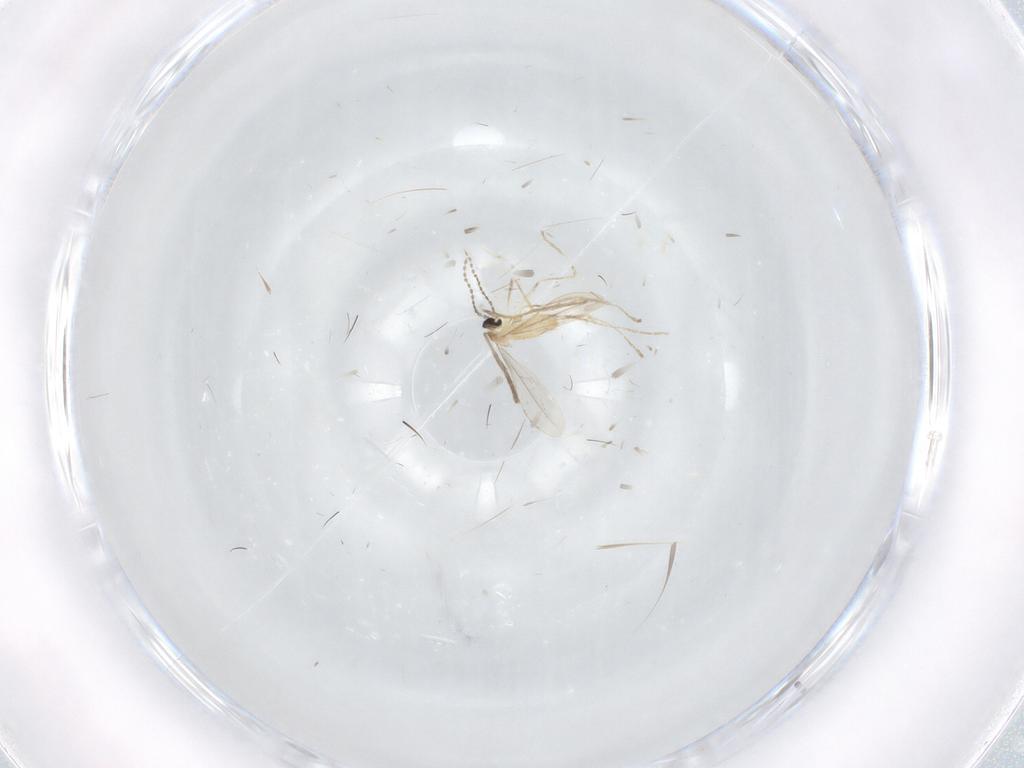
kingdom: Animalia
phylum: Arthropoda
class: Insecta
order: Diptera
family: Psychodidae
